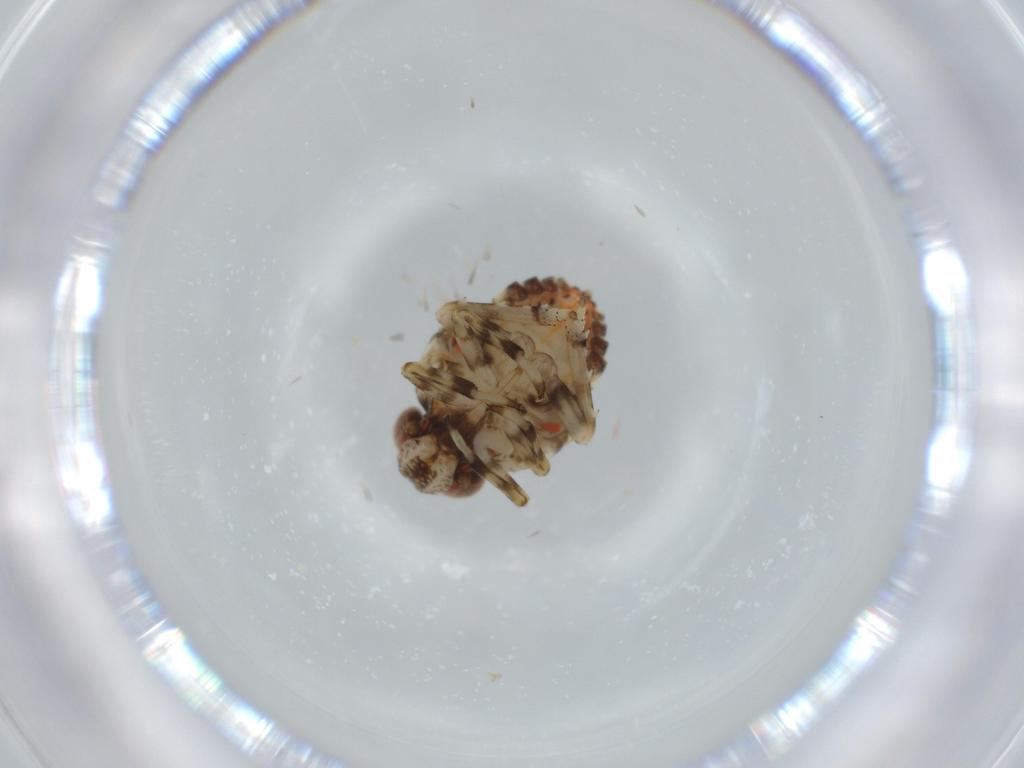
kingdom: Animalia
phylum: Arthropoda
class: Insecta
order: Hemiptera
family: Issidae
